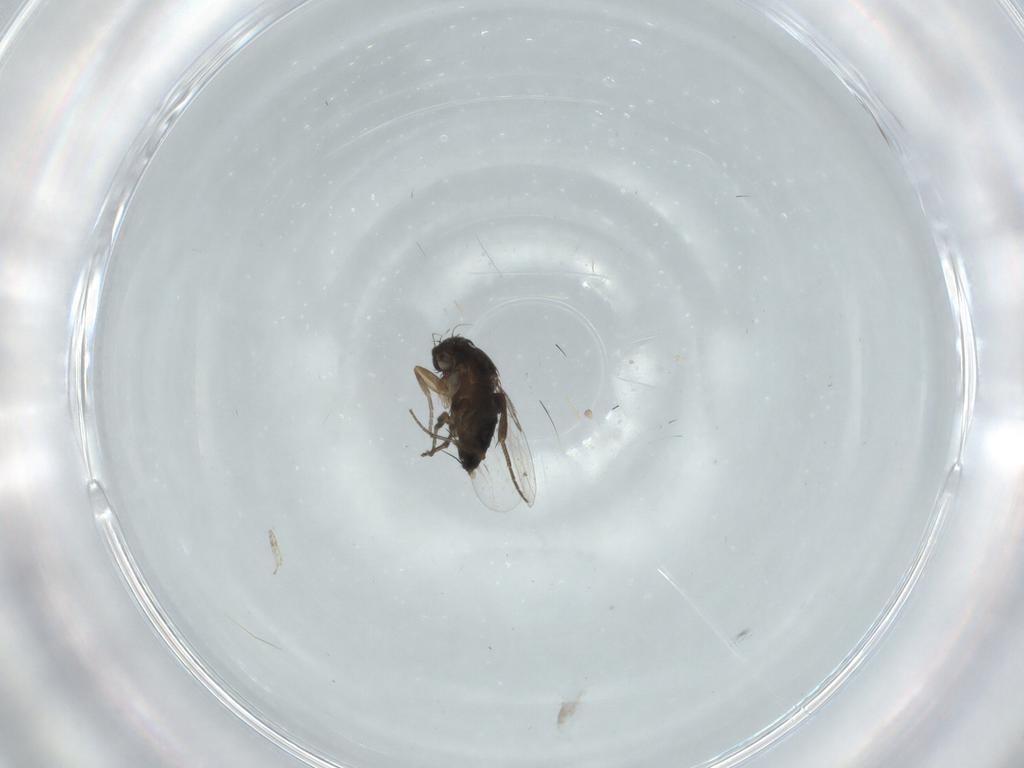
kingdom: Animalia
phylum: Arthropoda
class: Insecta
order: Diptera
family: Phoridae
